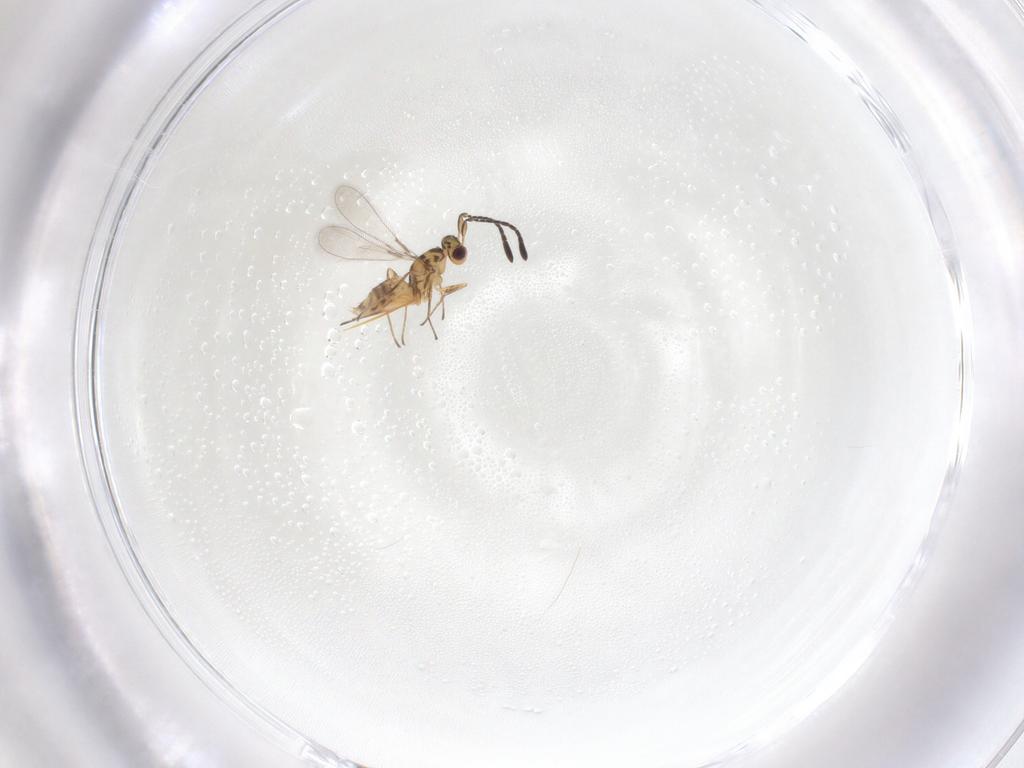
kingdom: Animalia
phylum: Arthropoda
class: Insecta
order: Hymenoptera
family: Mymaridae
